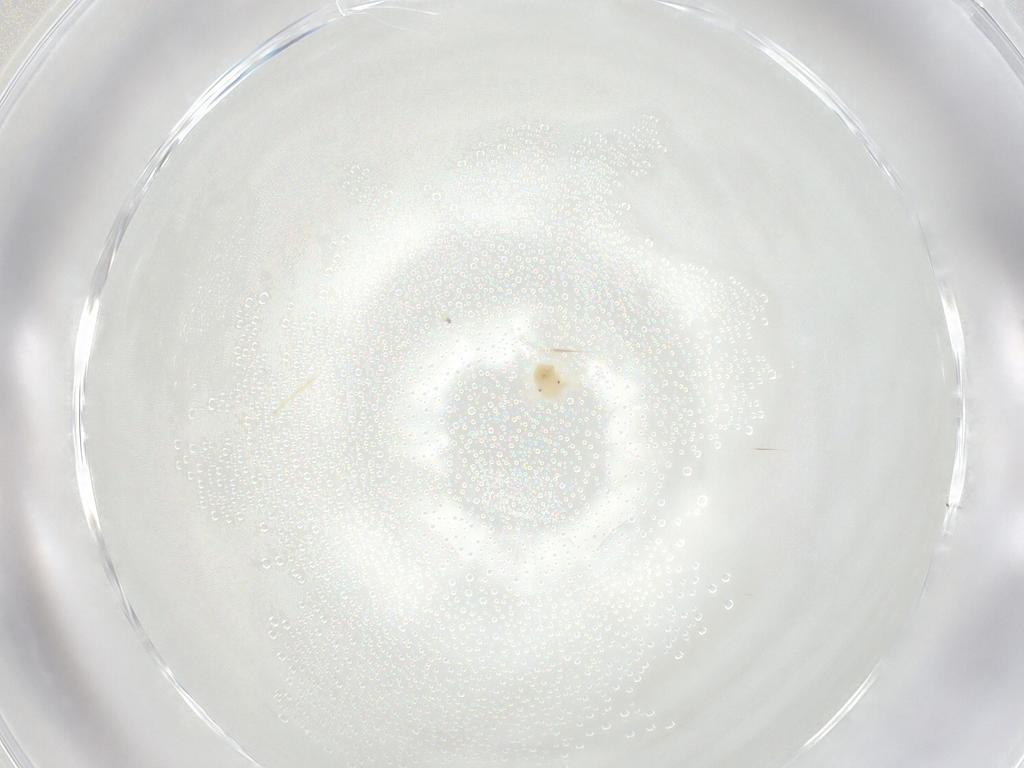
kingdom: Animalia
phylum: Arthropoda
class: Arachnida
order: Trombidiformes
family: Anystidae
